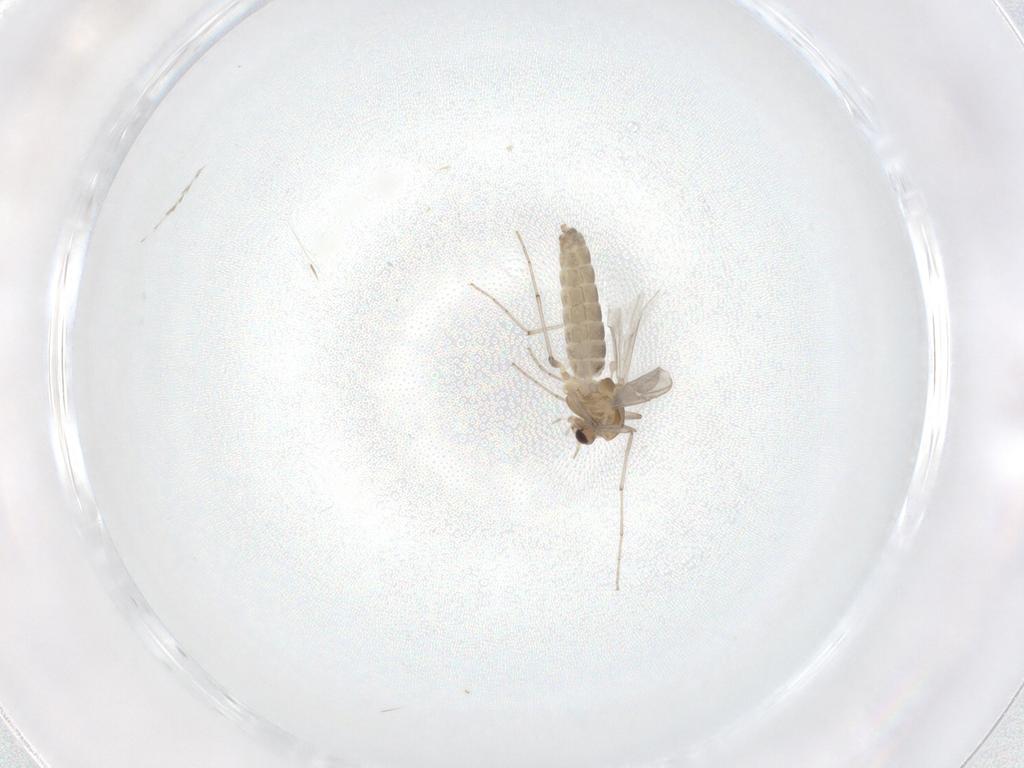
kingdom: Animalia
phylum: Arthropoda
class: Insecta
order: Diptera
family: Chironomidae
